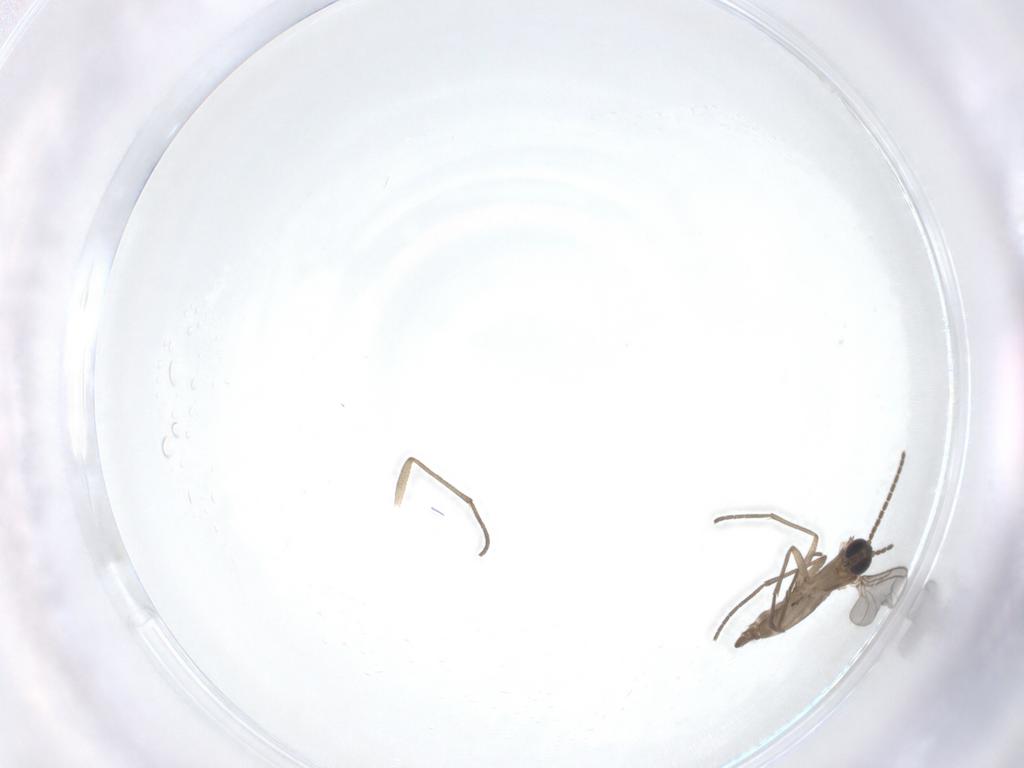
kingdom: Animalia
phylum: Arthropoda
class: Insecta
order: Diptera
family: Sciaridae
